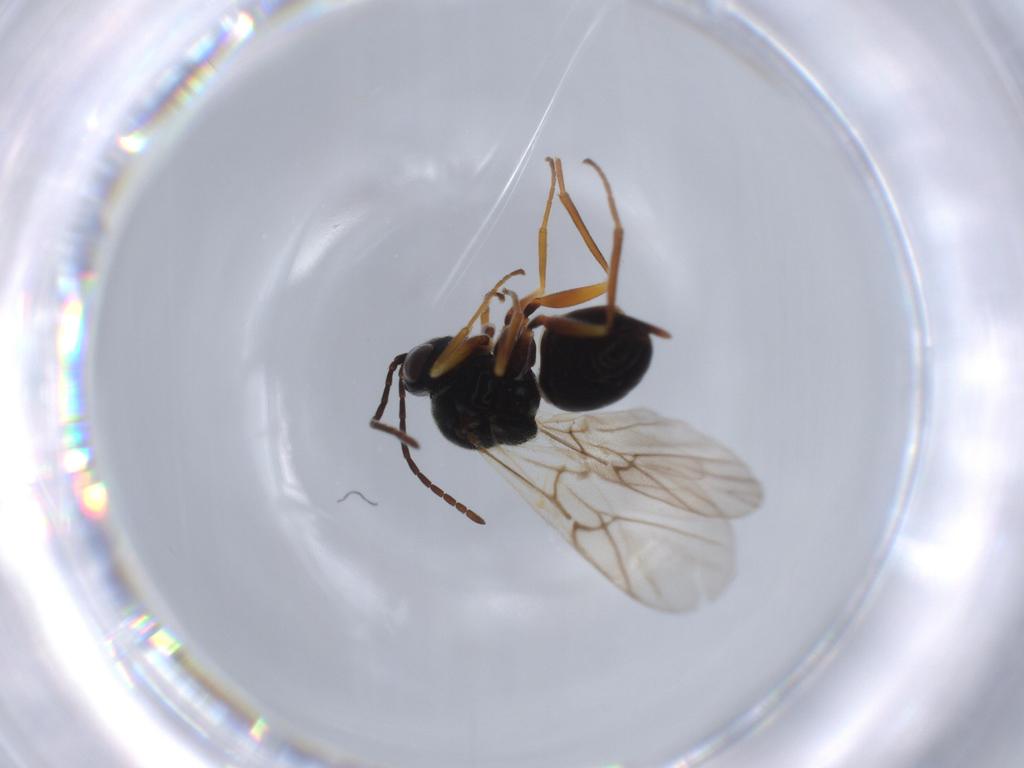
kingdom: Animalia
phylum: Arthropoda
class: Insecta
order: Hymenoptera
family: Cynipidae
